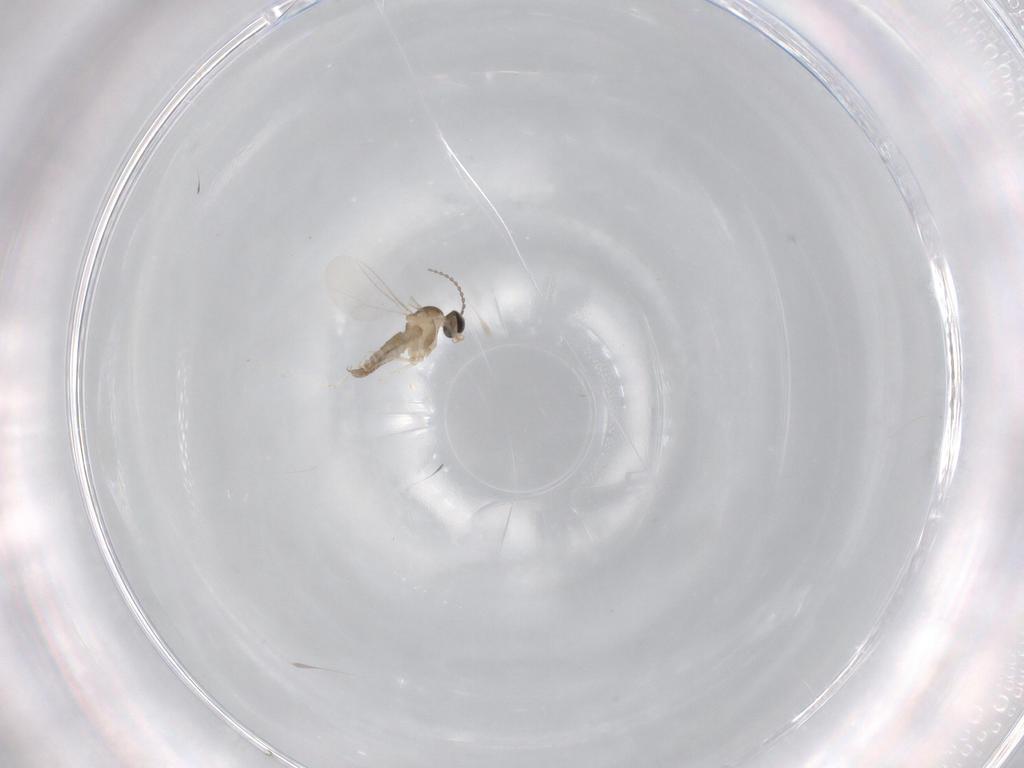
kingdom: Animalia
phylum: Arthropoda
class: Insecta
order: Diptera
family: Cecidomyiidae
